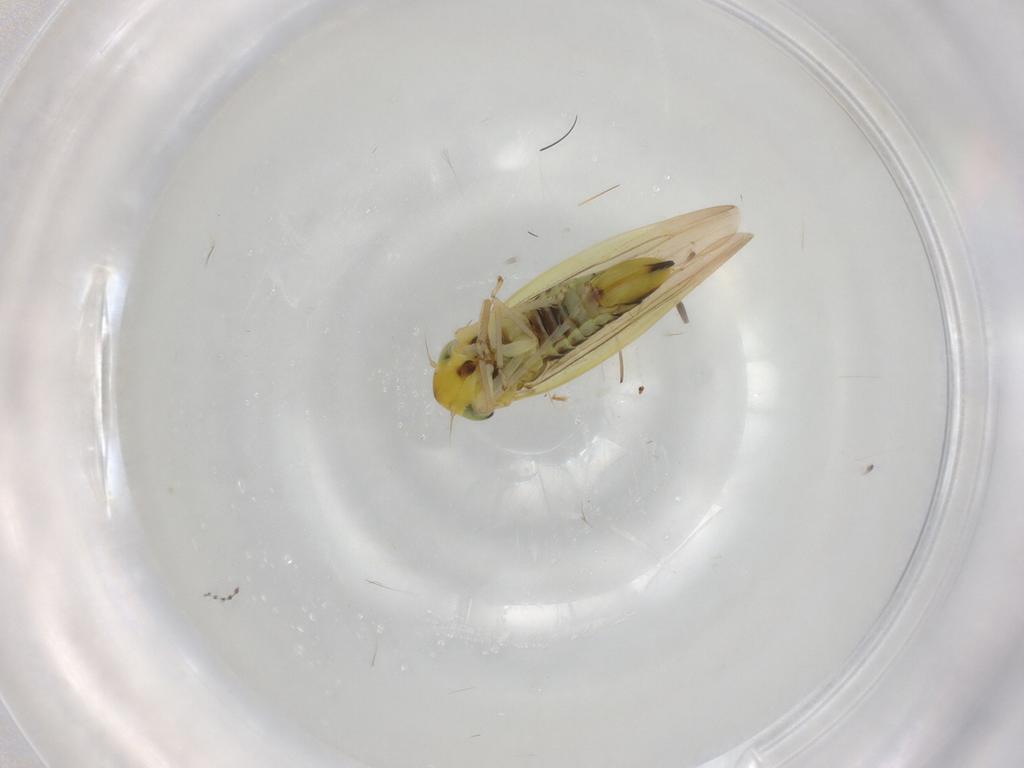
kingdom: Animalia
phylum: Arthropoda
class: Insecta
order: Hemiptera
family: Cicadellidae
